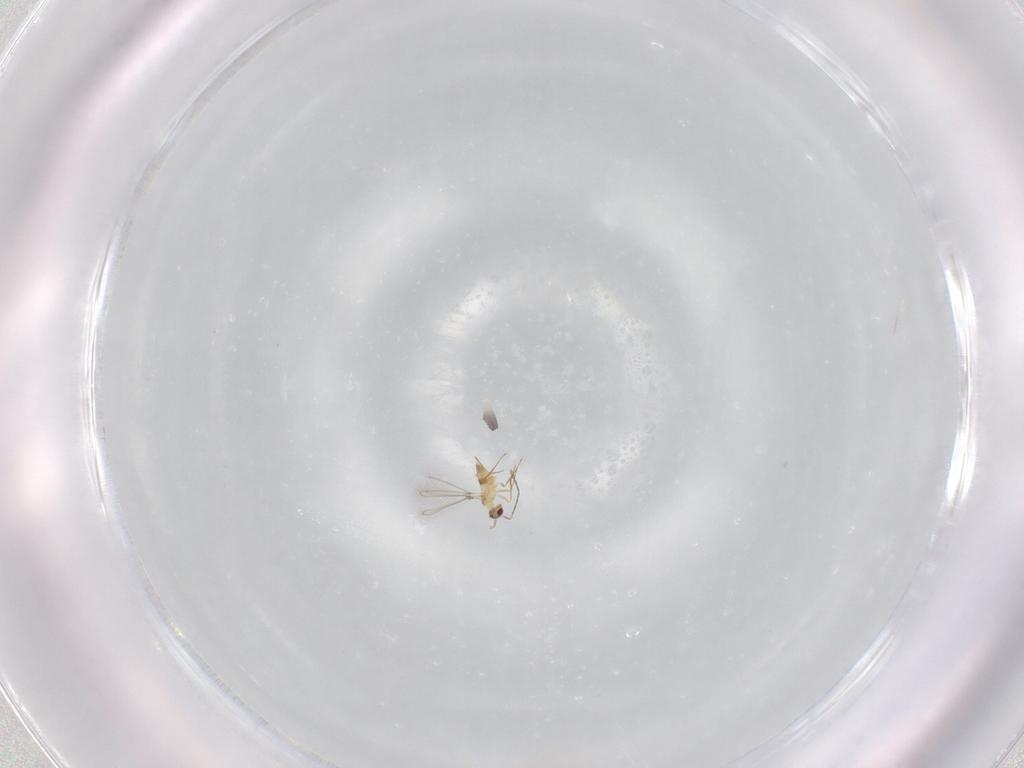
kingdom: Animalia
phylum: Arthropoda
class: Insecta
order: Hymenoptera
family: Mymaridae
